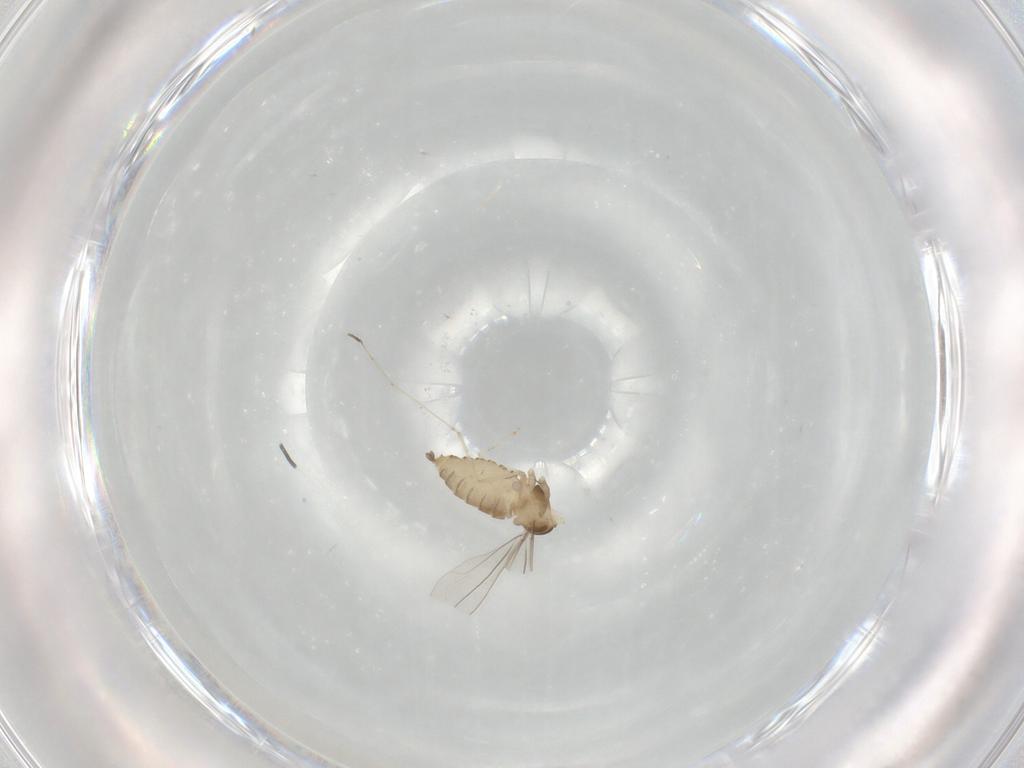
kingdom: Animalia
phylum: Arthropoda
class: Insecta
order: Diptera
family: Cecidomyiidae
